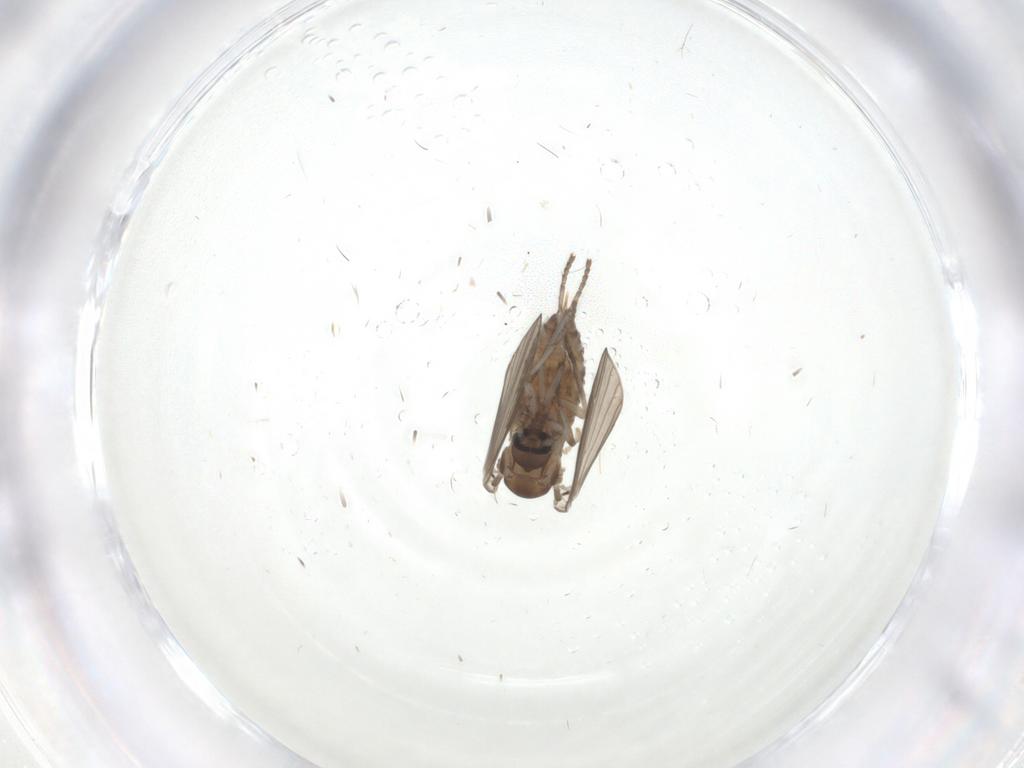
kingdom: Animalia
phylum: Arthropoda
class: Insecta
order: Diptera
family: Psychodidae
